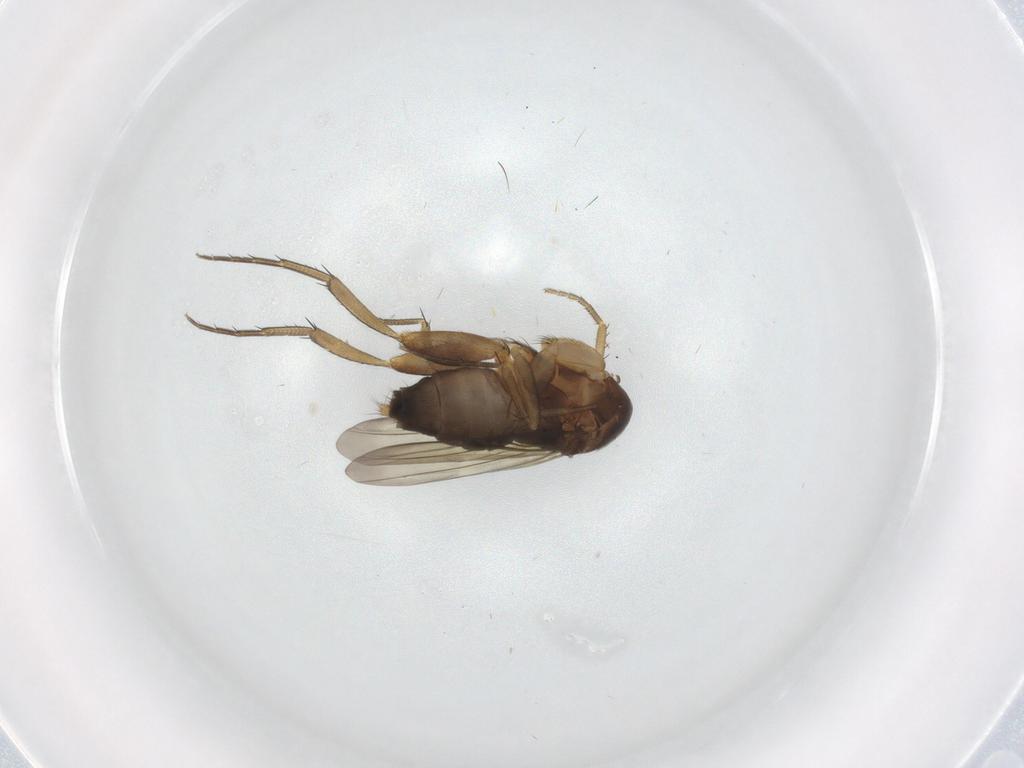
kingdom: Animalia
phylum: Arthropoda
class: Insecta
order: Diptera
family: Phoridae
